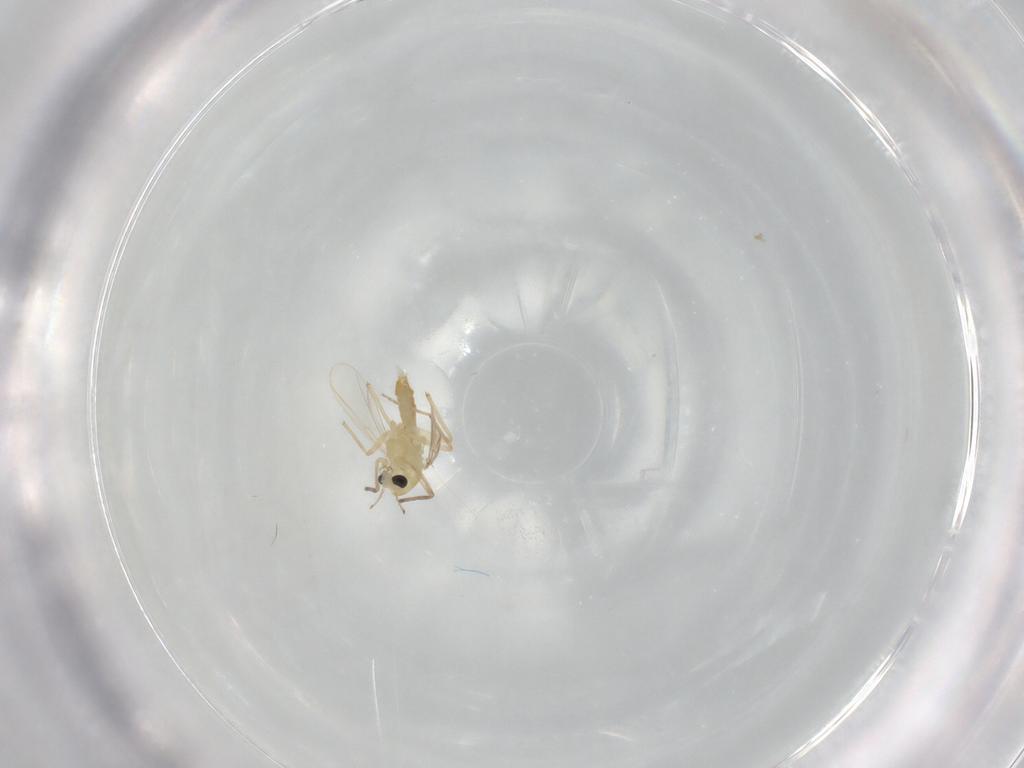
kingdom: Animalia
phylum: Arthropoda
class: Insecta
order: Diptera
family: Chironomidae
